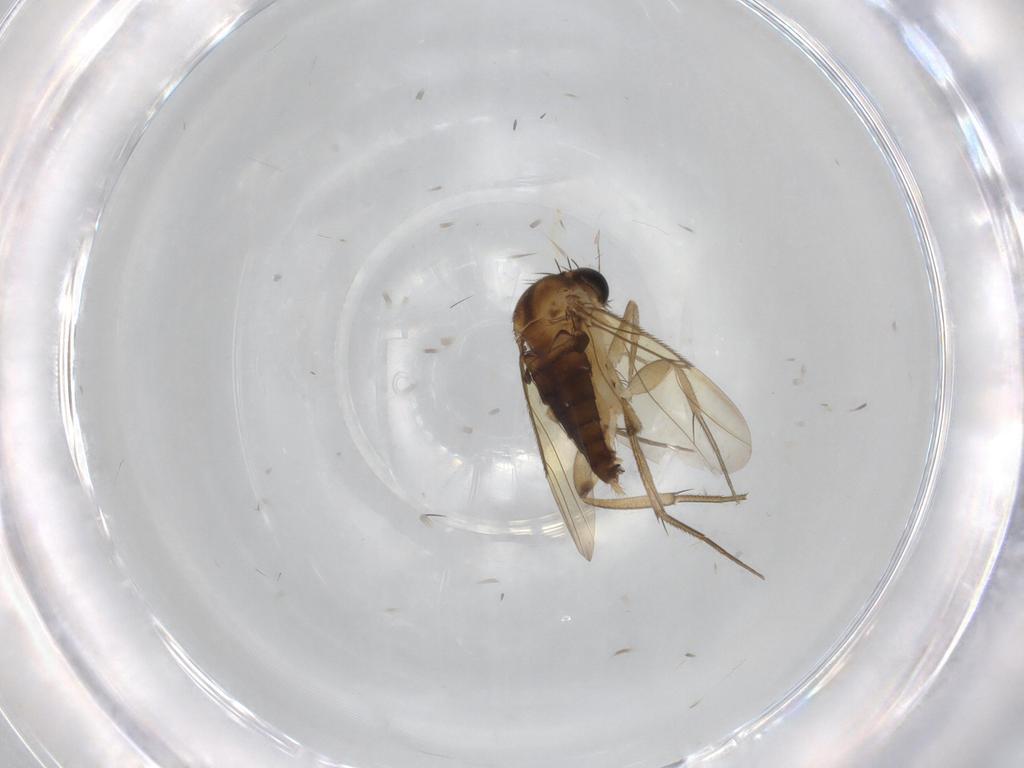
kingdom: Animalia
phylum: Arthropoda
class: Insecta
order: Diptera
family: Phoridae
